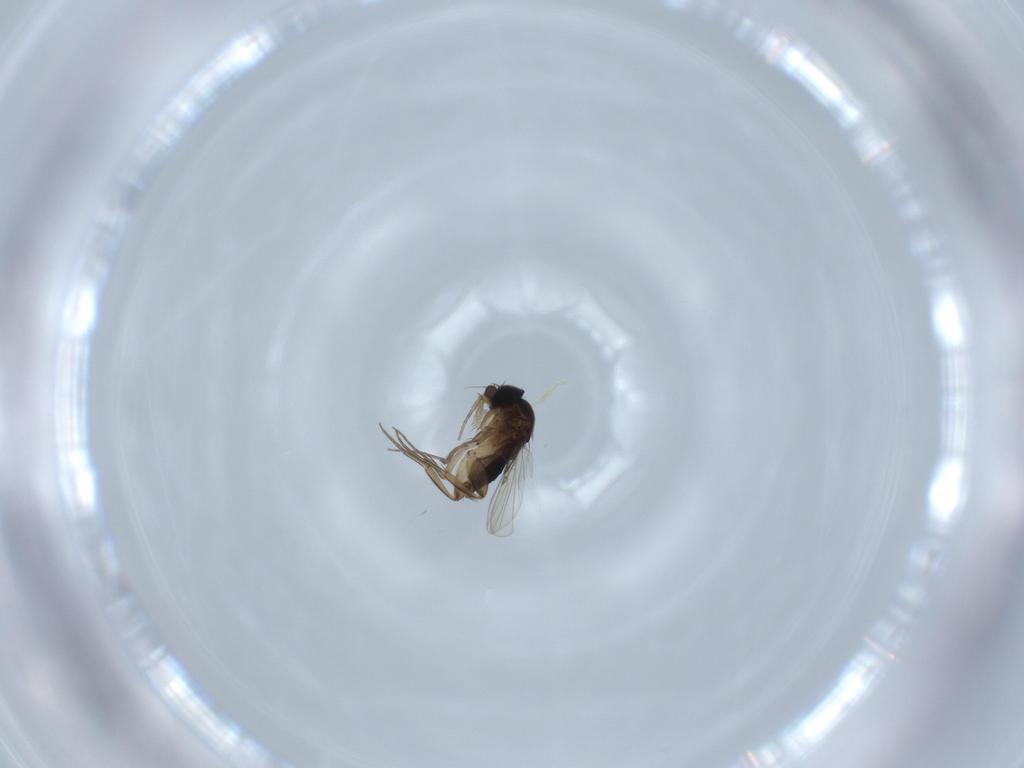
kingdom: Animalia
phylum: Arthropoda
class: Insecta
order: Diptera
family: Phoridae
